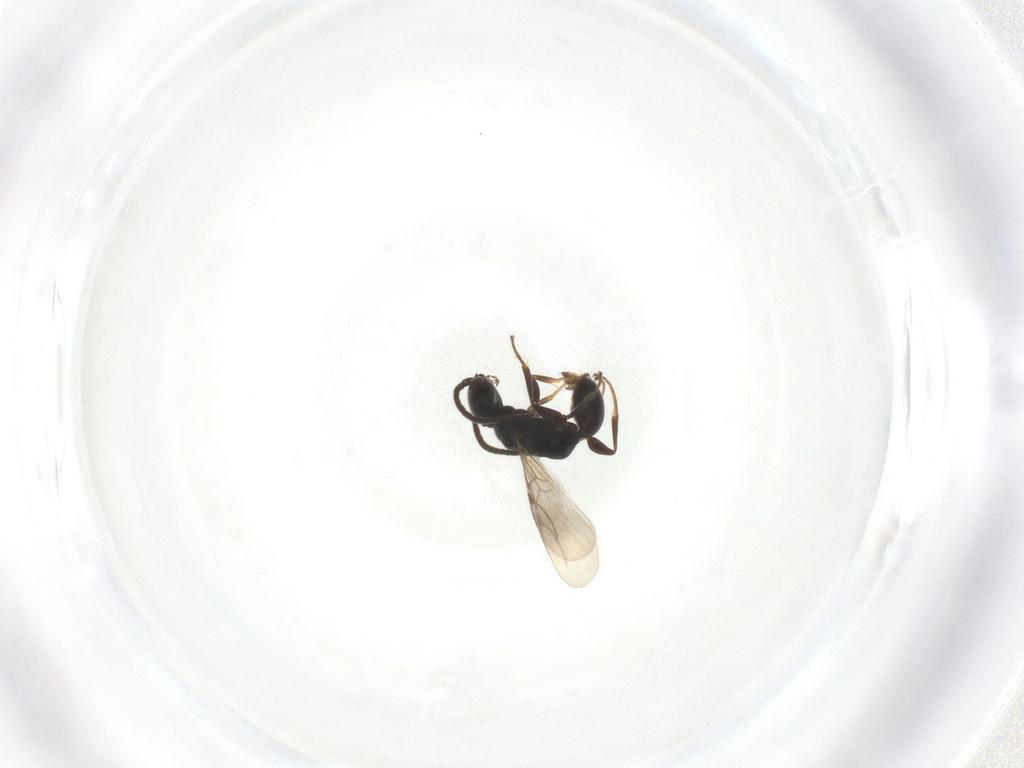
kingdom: Animalia
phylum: Arthropoda
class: Insecta
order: Hymenoptera
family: Bethylidae
